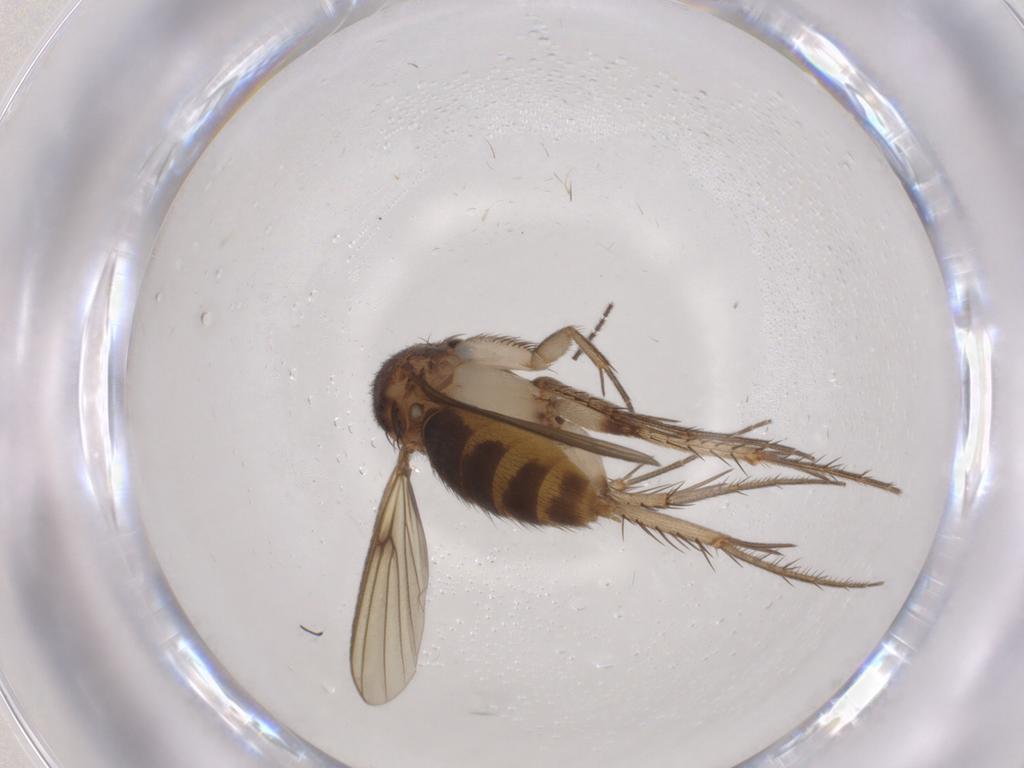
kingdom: Animalia
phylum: Arthropoda
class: Insecta
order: Diptera
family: Mycetophilidae
